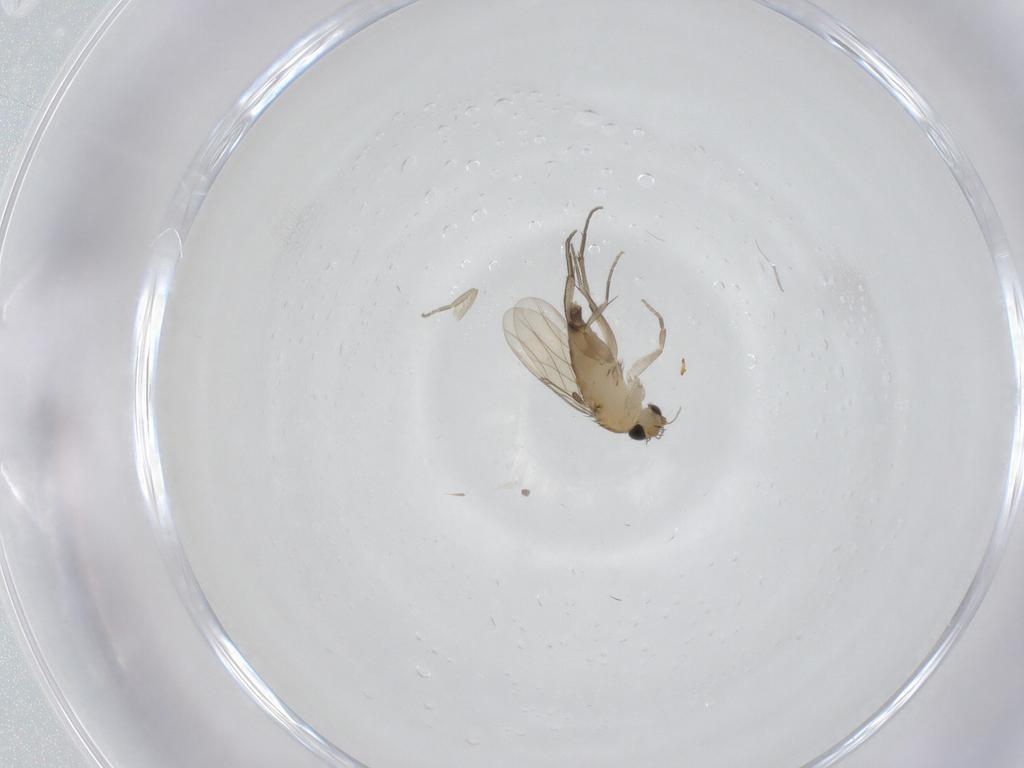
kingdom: Animalia
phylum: Arthropoda
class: Insecta
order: Diptera
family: Phoridae
